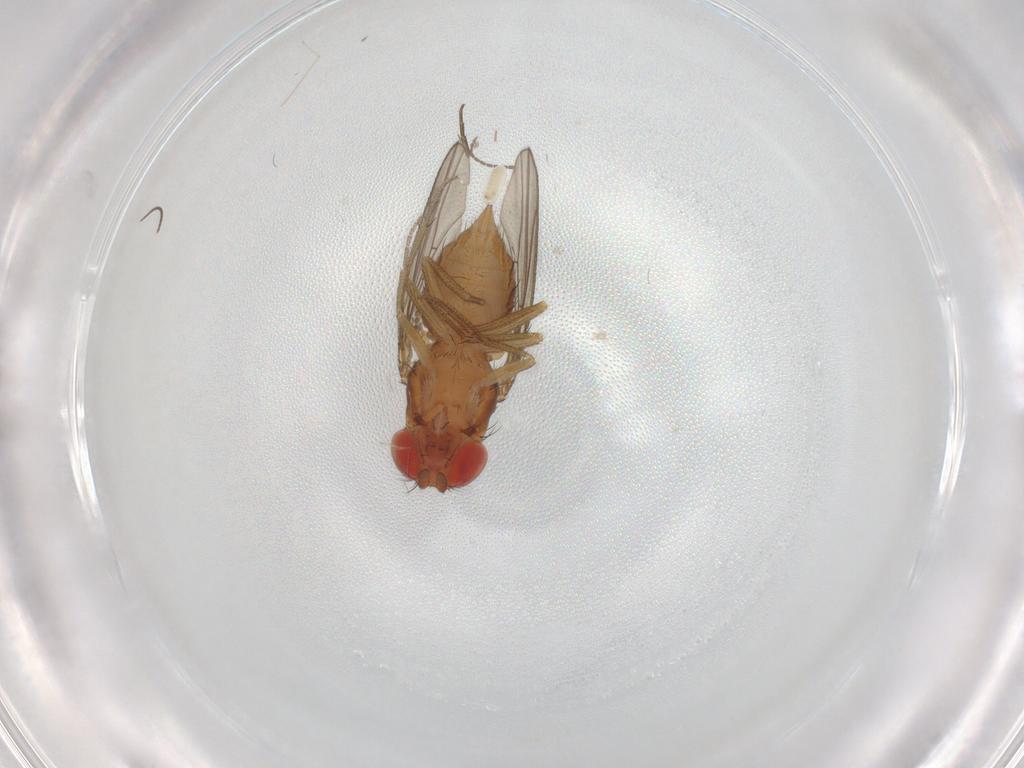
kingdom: Animalia
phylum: Arthropoda
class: Insecta
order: Diptera
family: Drosophilidae
